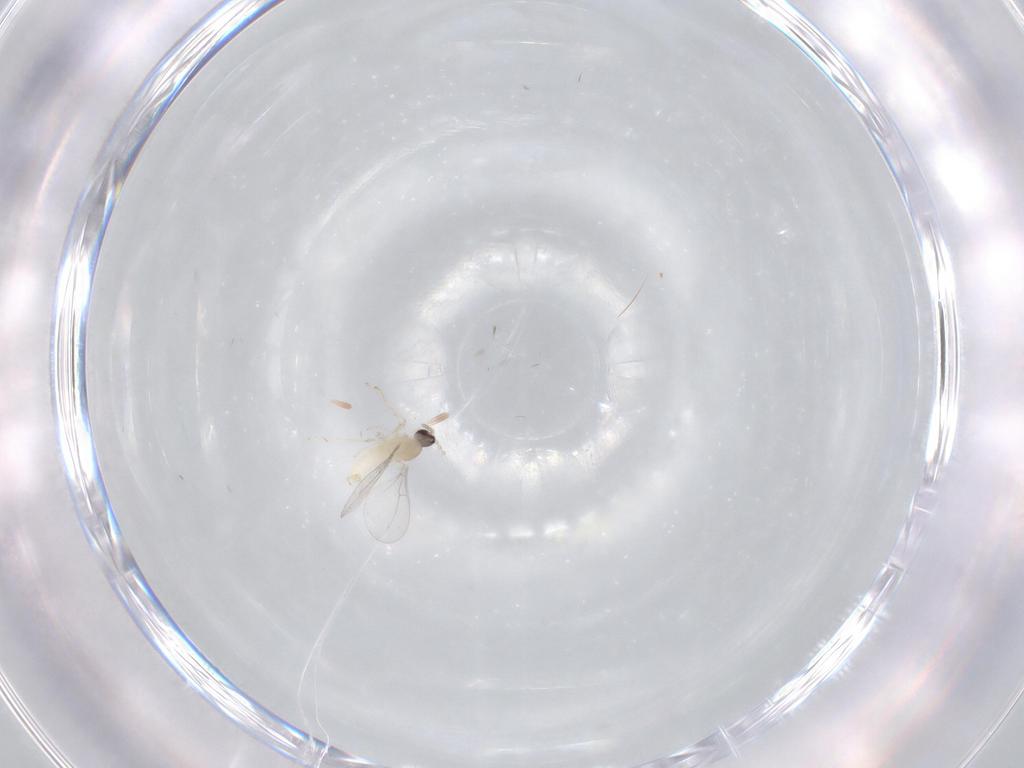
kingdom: Animalia
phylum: Arthropoda
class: Insecta
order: Diptera
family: Cecidomyiidae
